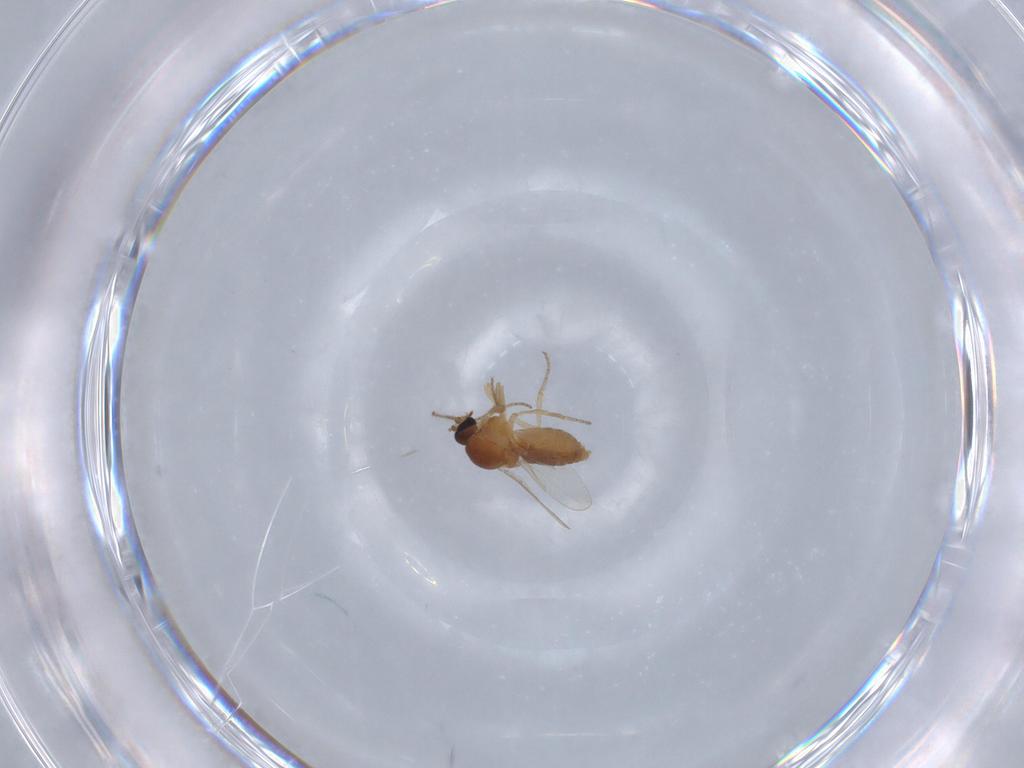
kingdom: Animalia
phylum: Arthropoda
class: Insecta
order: Diptera
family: Ceratopogonidae
